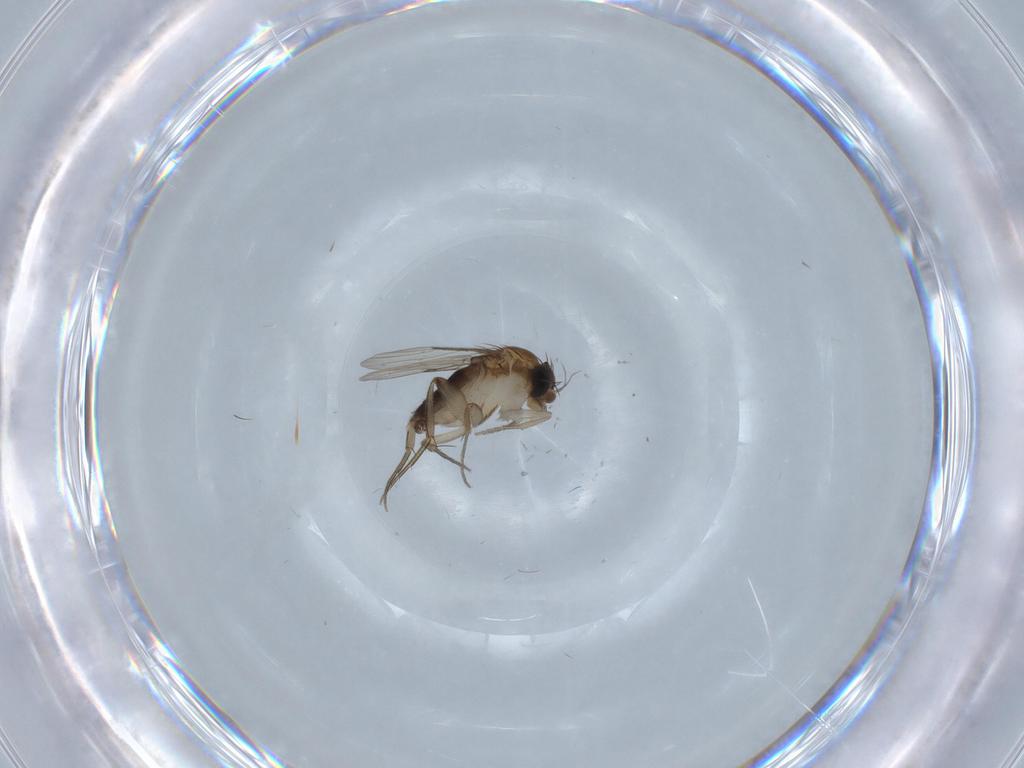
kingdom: Animalia
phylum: Arthropoda
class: Insecta
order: Diptera
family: Phoridae
